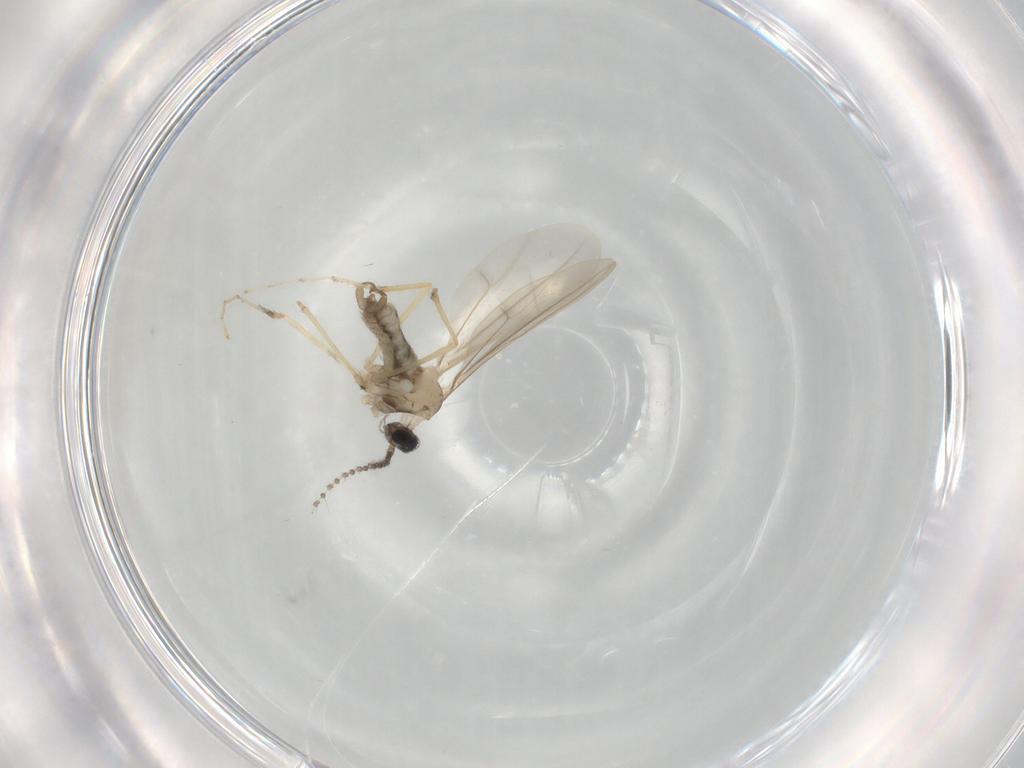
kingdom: Animalia
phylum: Arthropoda
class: Insecta
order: Diptera
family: Cecidomyiidae
